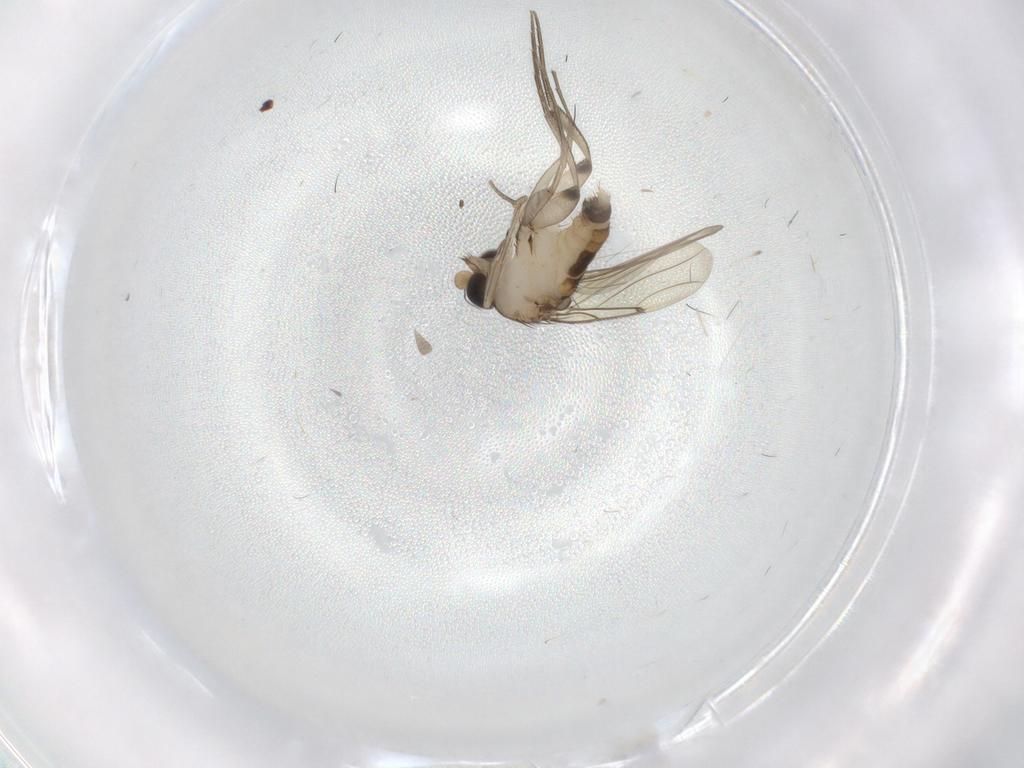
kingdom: Animalia
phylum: Arthropoda
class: Insecta
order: Diptera
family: Cecidomyiidae
